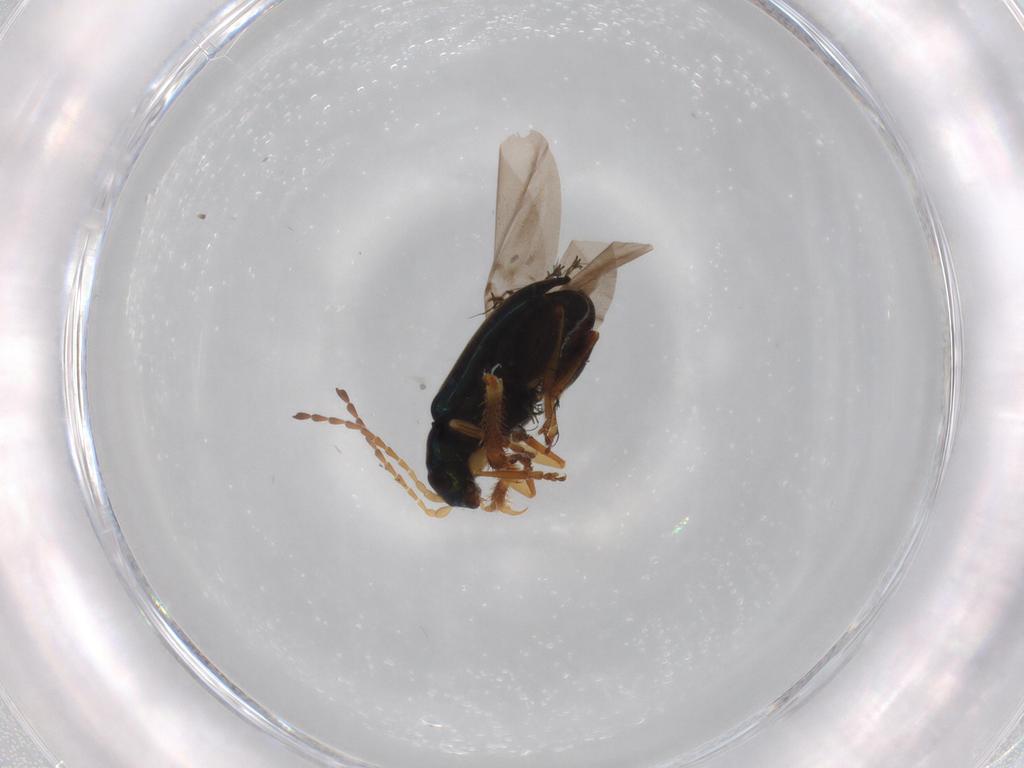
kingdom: Animalia
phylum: Arthropoda
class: Insecta
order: Coleoptera
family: Chrysomelidae
